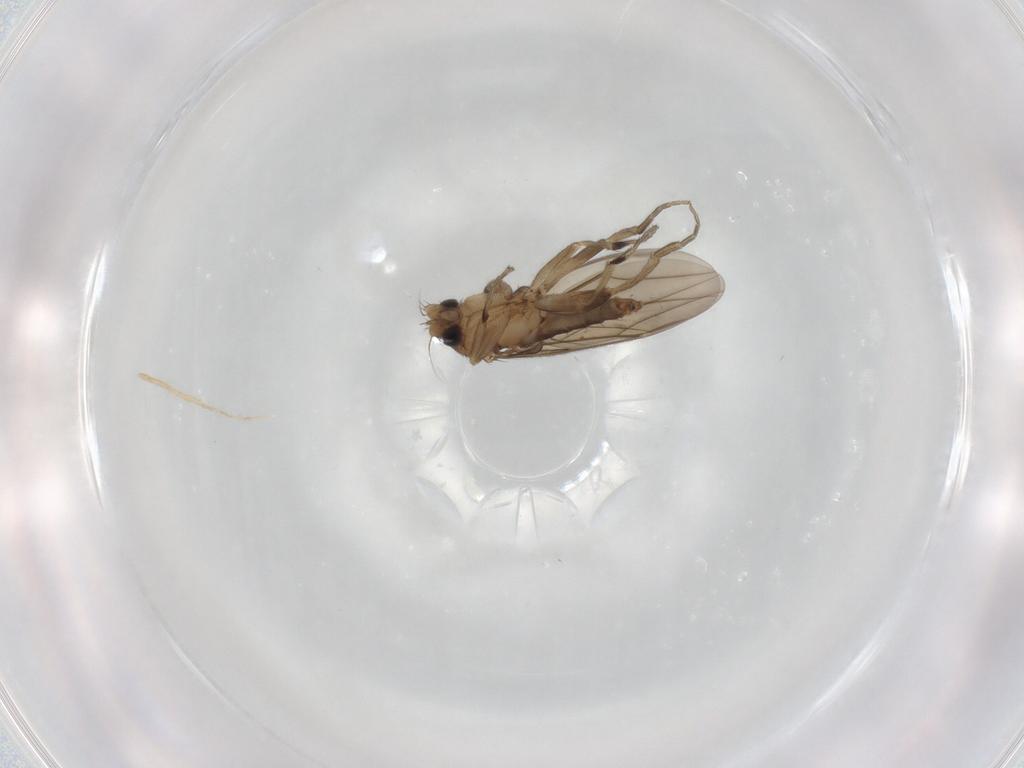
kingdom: Animalia
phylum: Arthropoda
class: Insecta
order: Diptera
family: Phoridae
